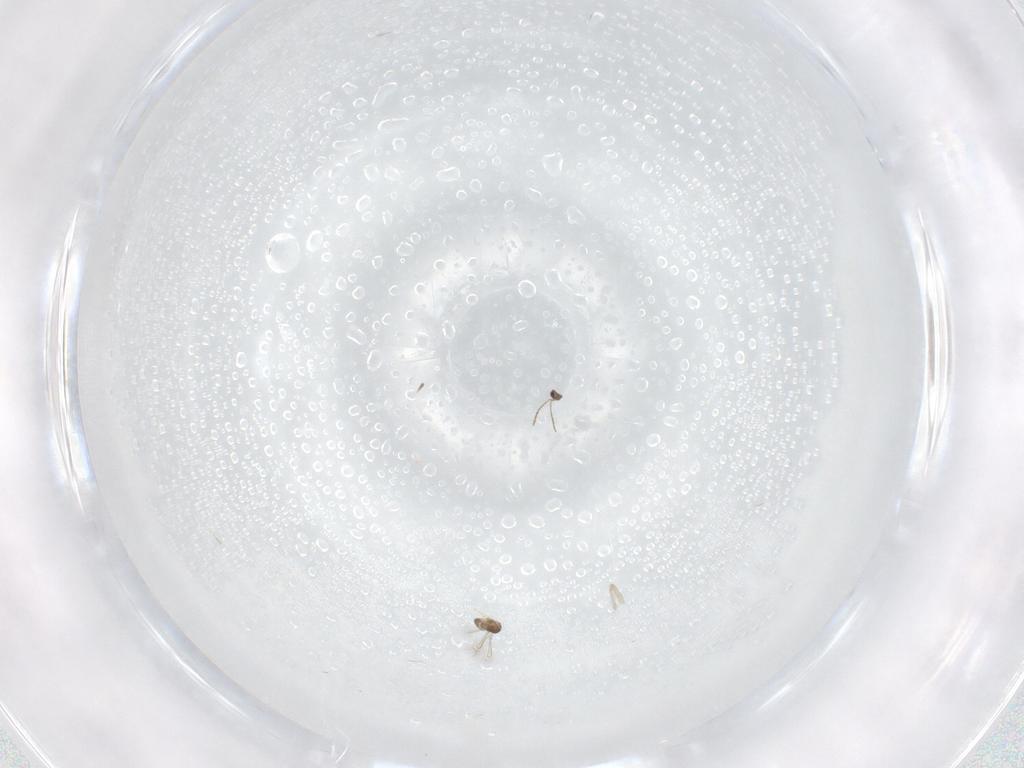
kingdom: Animalia
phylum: Arthropoda
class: Insecta
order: Hymenoptera
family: Mymaridae
